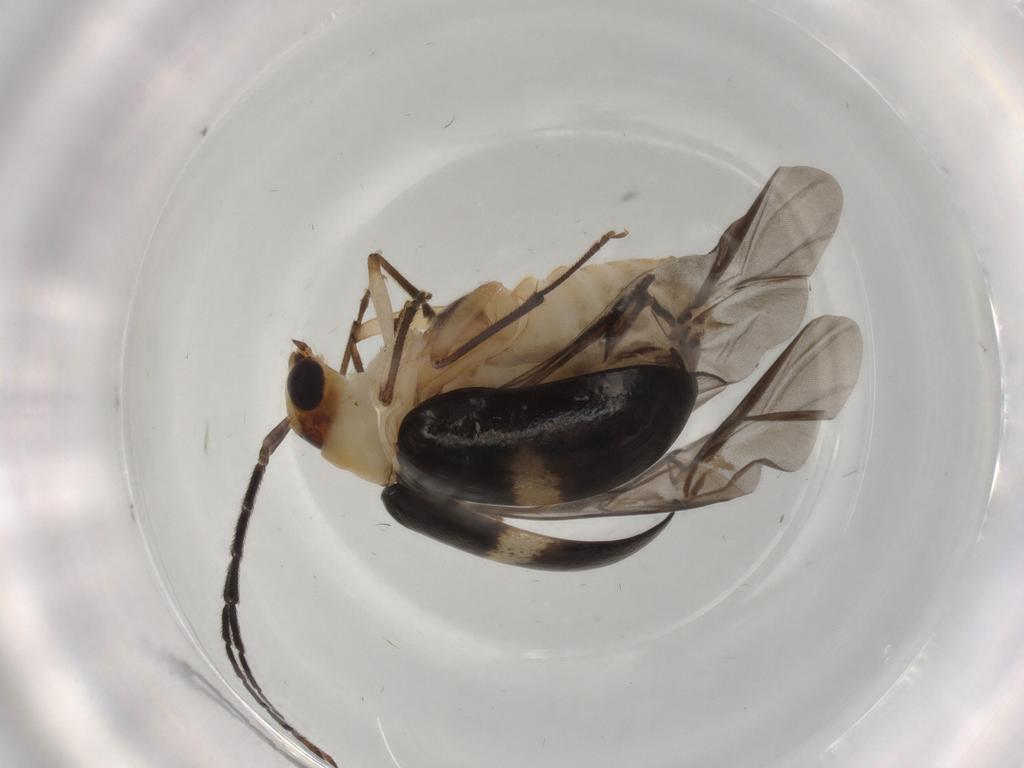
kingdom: Animalia
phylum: Arthropoda
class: Insecta
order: Coleoptera
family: Chrysomelidae
